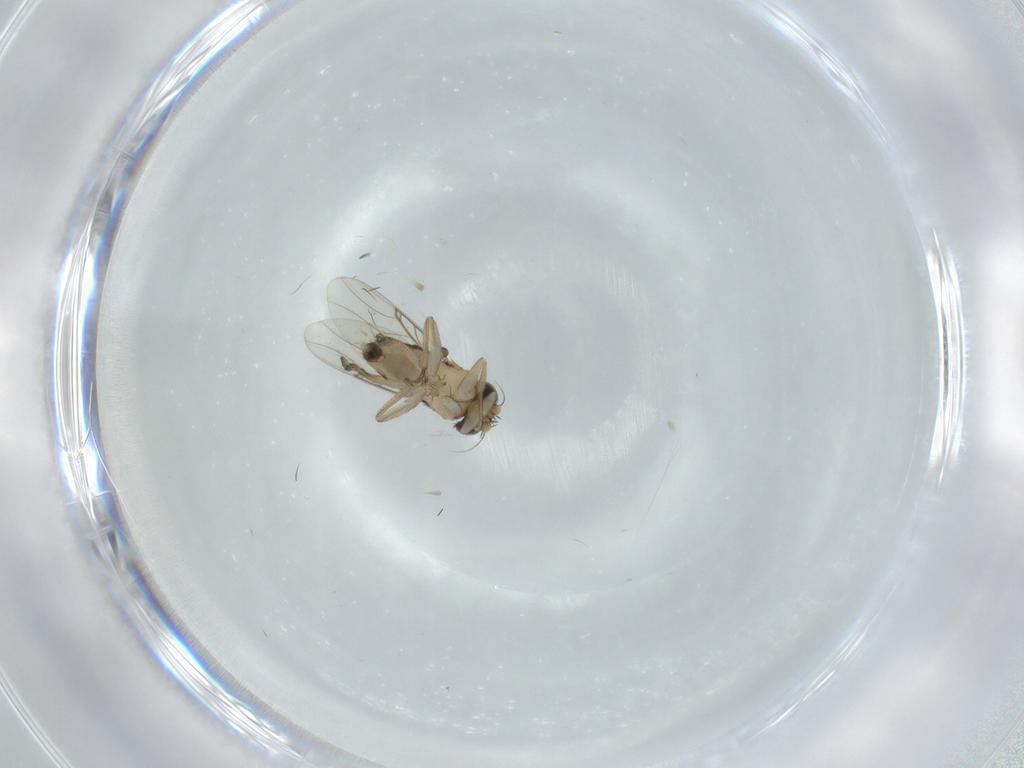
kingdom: Animalia
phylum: Arthropoda
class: Insecta
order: Diptera
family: Phoridae
